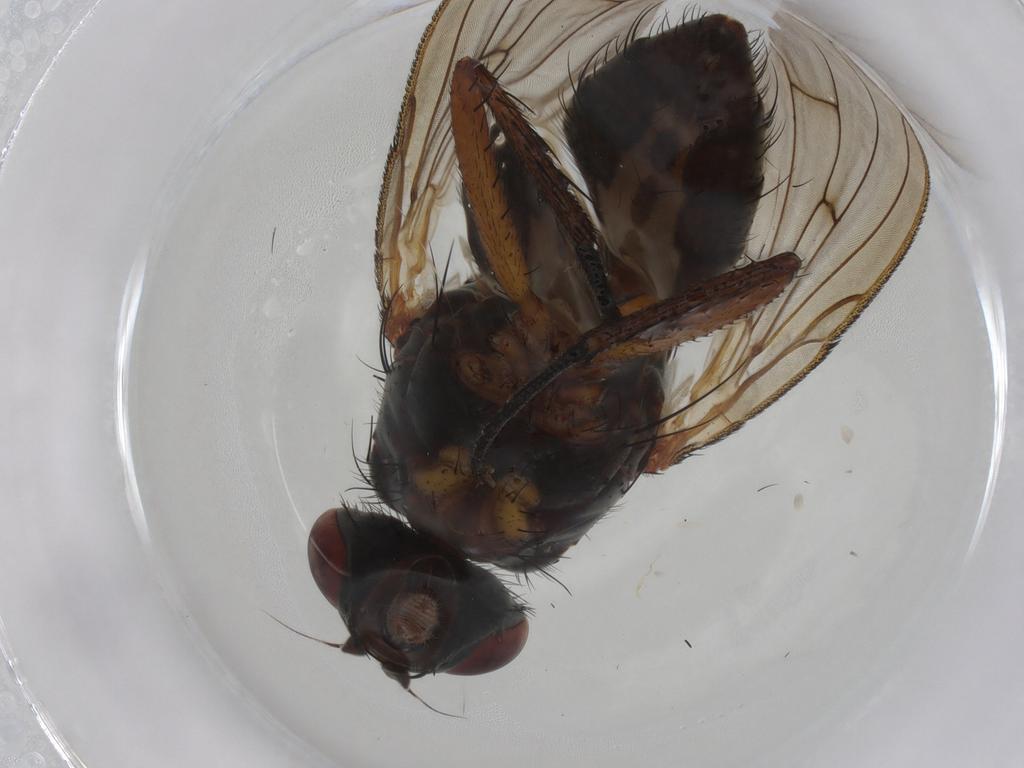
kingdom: Animalia
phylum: Arthropoda
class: Insecta
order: Diptera
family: Anthomyiidae
